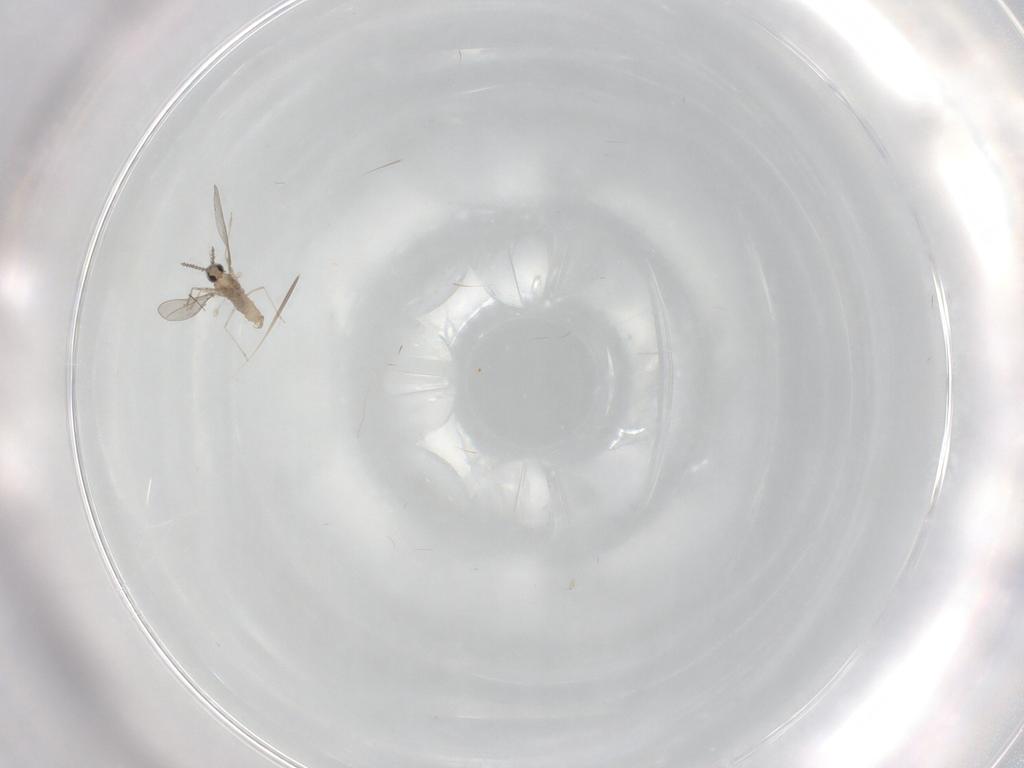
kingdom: Animalia
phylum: Arthropoda
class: Insecta
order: Diptera
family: Cecidomyiidae
